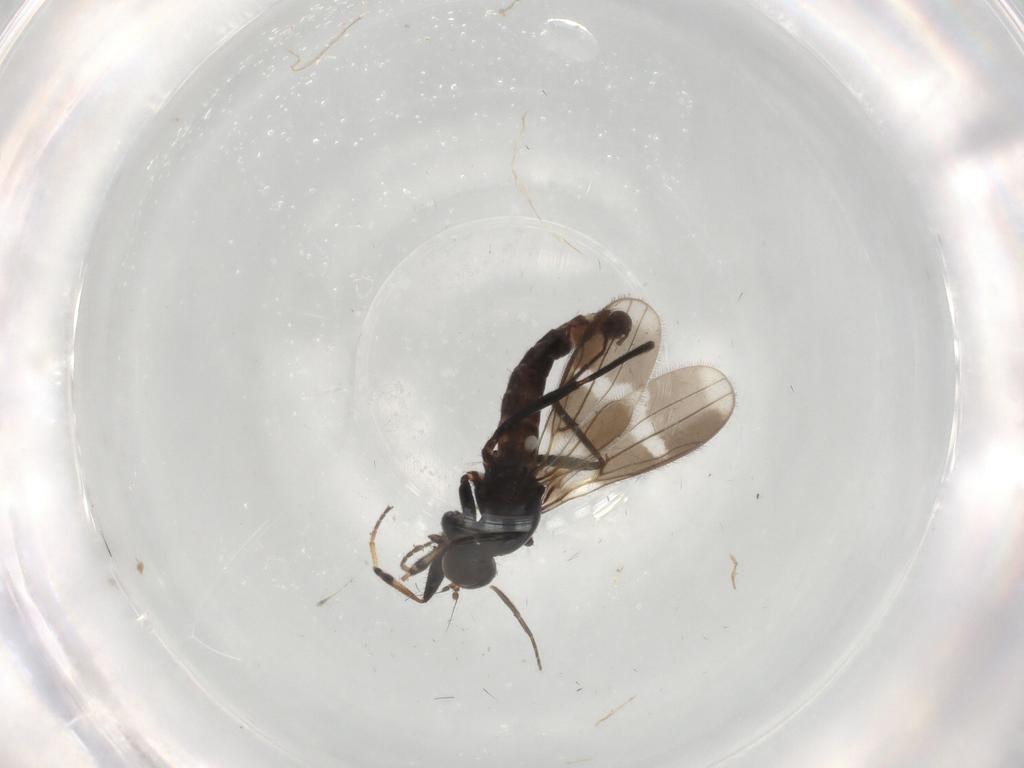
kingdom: Animalia
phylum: Arthropoda
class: Insecta
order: Diptera
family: Hybotidae
